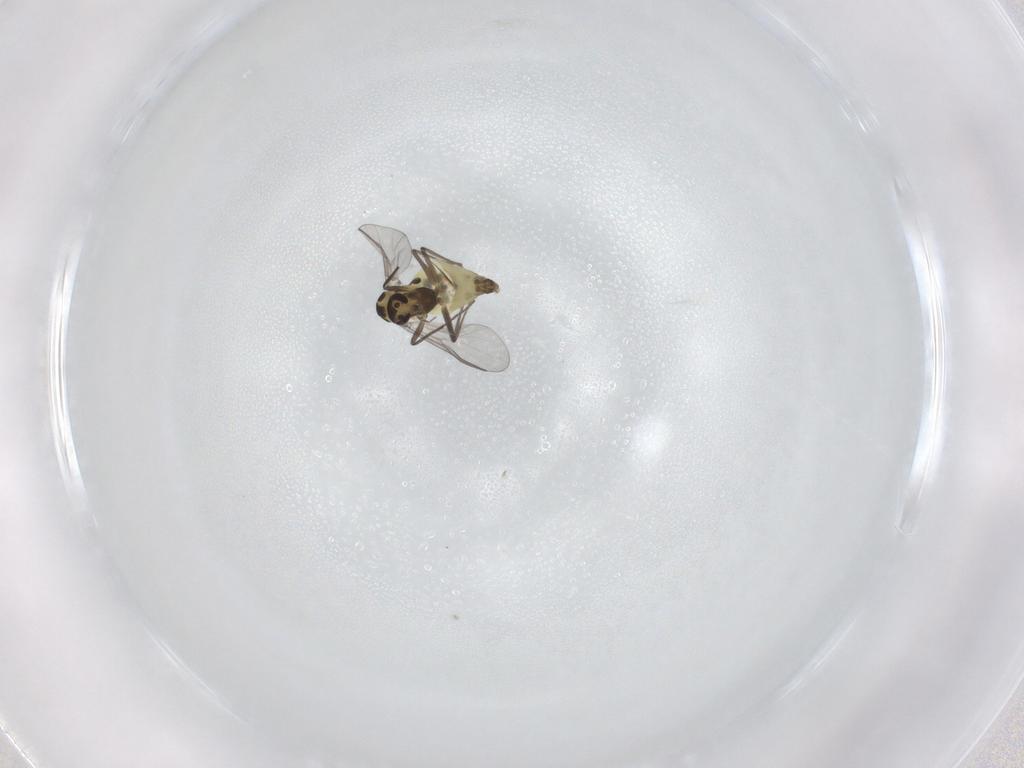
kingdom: Animalia
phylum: Arthropoda
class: Insecta
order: Diptera
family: Chironomidae
